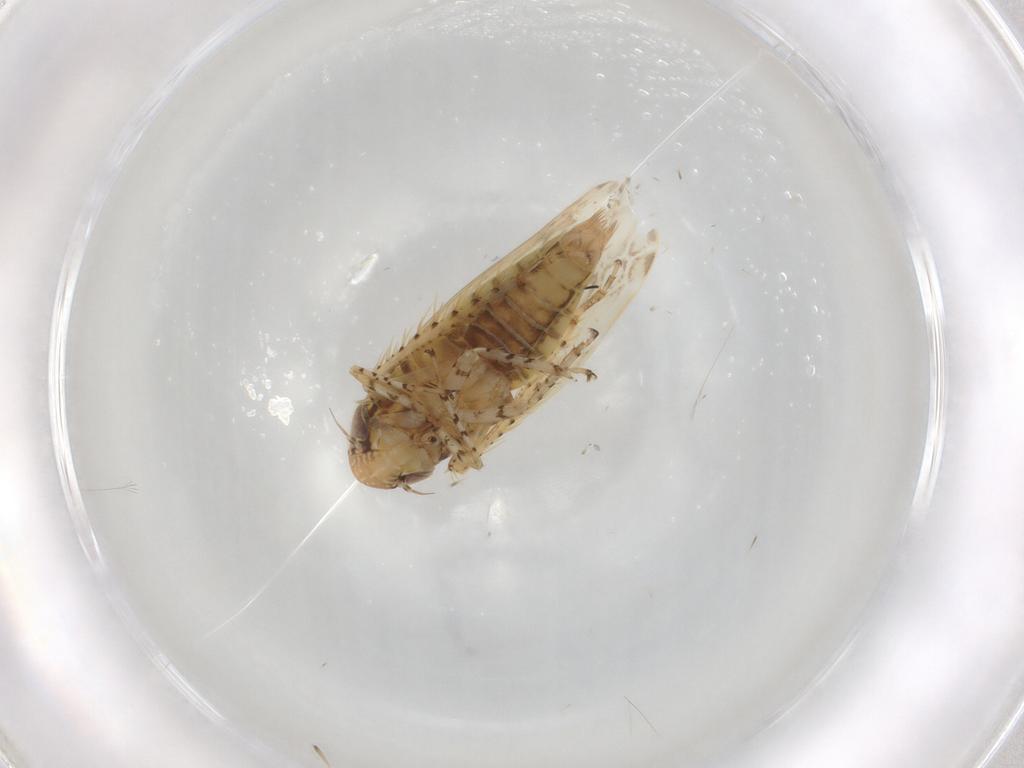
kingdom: Animalia
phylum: Arthropoda
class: Insecta
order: Hemiptera
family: Cicadellidae
